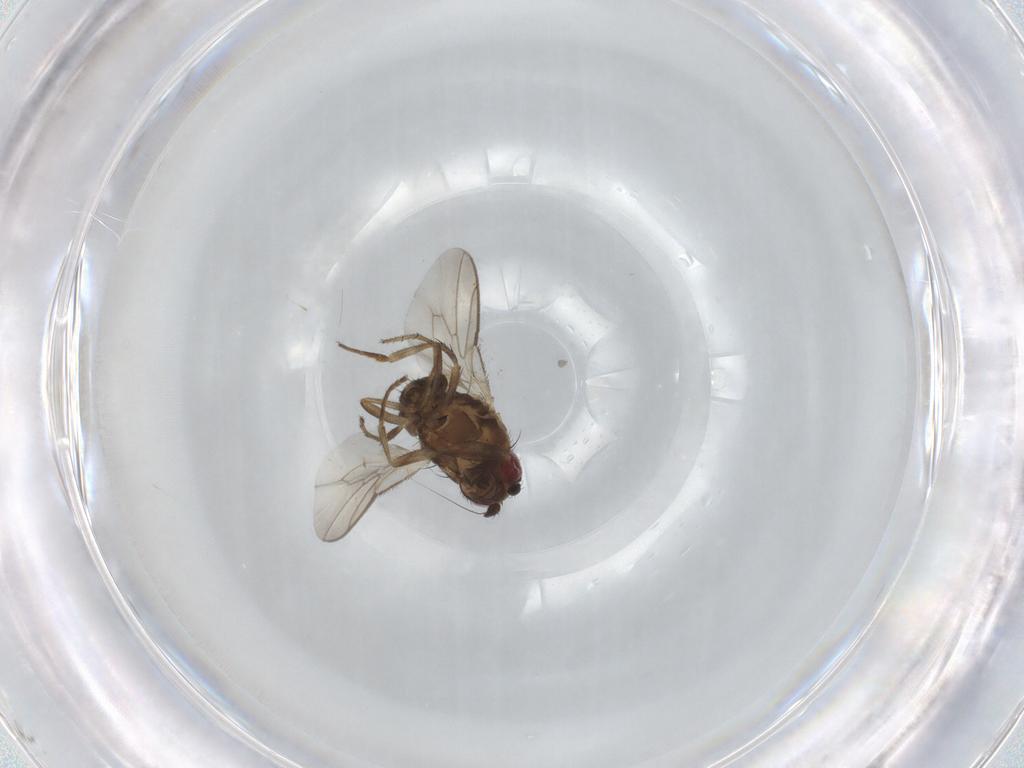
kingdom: Animalia
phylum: Arthropoda
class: Insecta
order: Diptera
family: Sphaeroceridae
